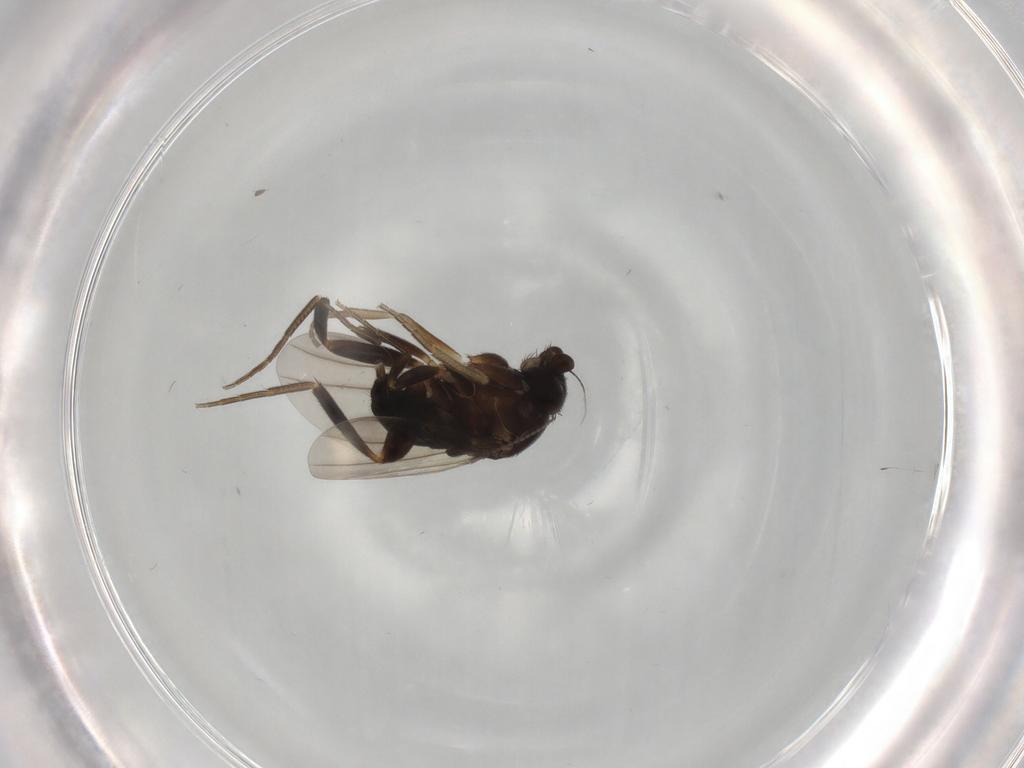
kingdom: Animalia
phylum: Arthropoda
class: Insecta
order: Diptera
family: Cecidomyiidae
